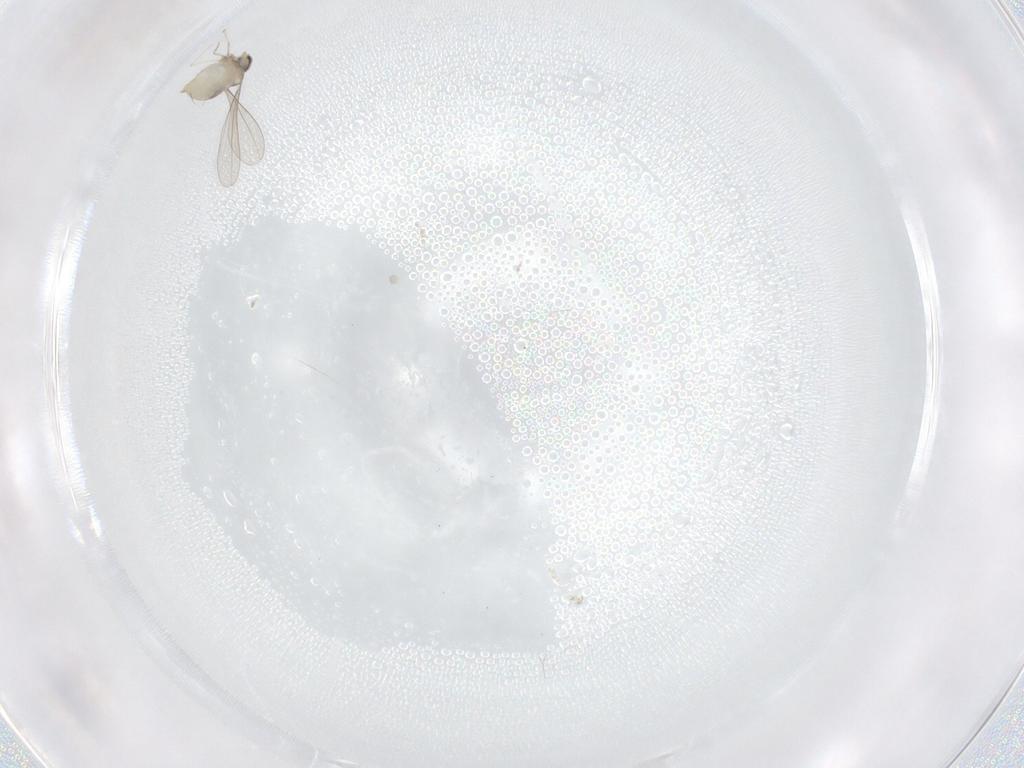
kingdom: Animalia
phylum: Arthropoda
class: Insecta
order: Diptera
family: Cecidomyiidae
